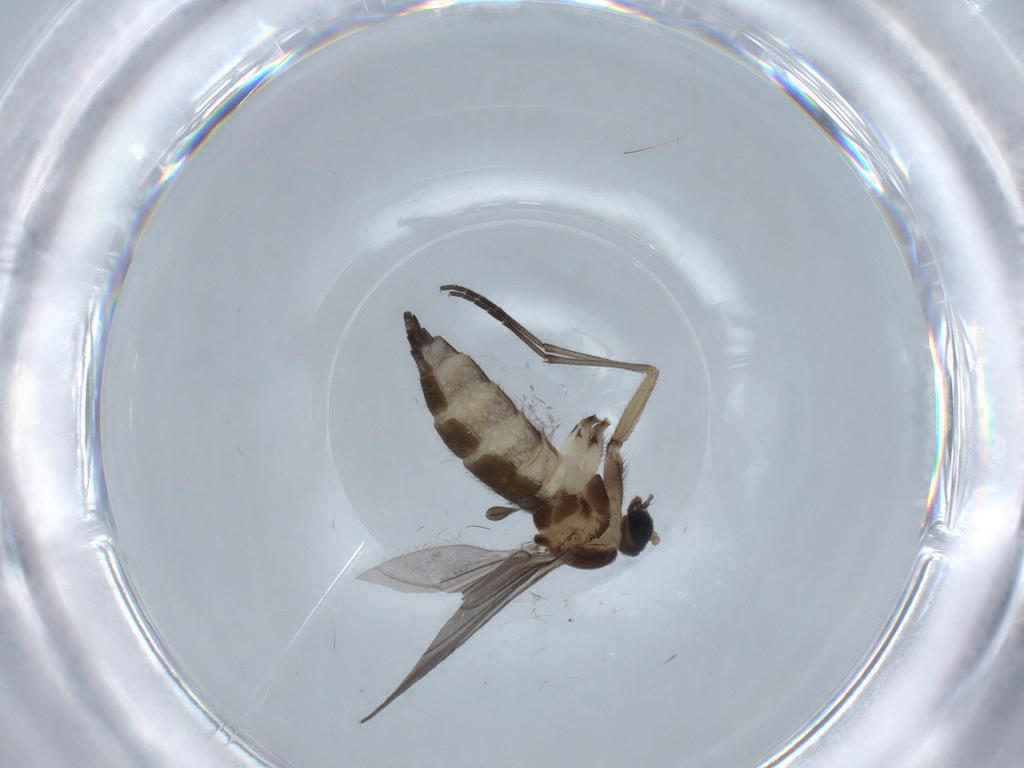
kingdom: Animalia
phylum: Arthropoda
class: Insecta
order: Diptera
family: Sciaridae
